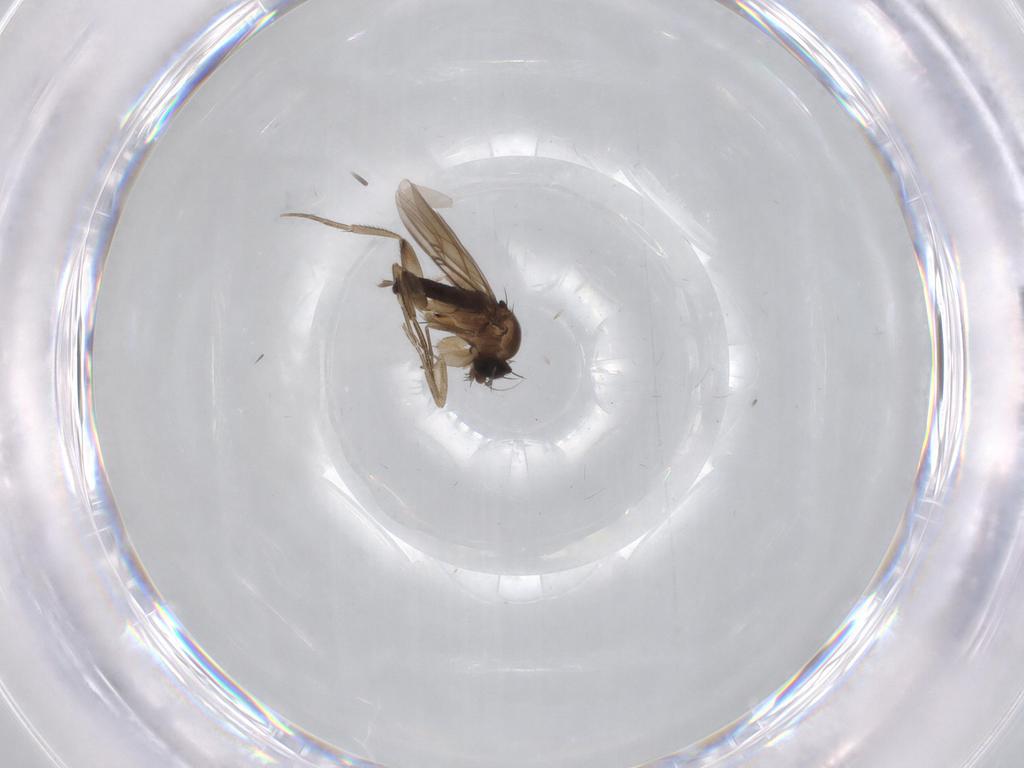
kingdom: Animalia
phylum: Arthropoda
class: Insecta
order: Diptera
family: Phoridae
